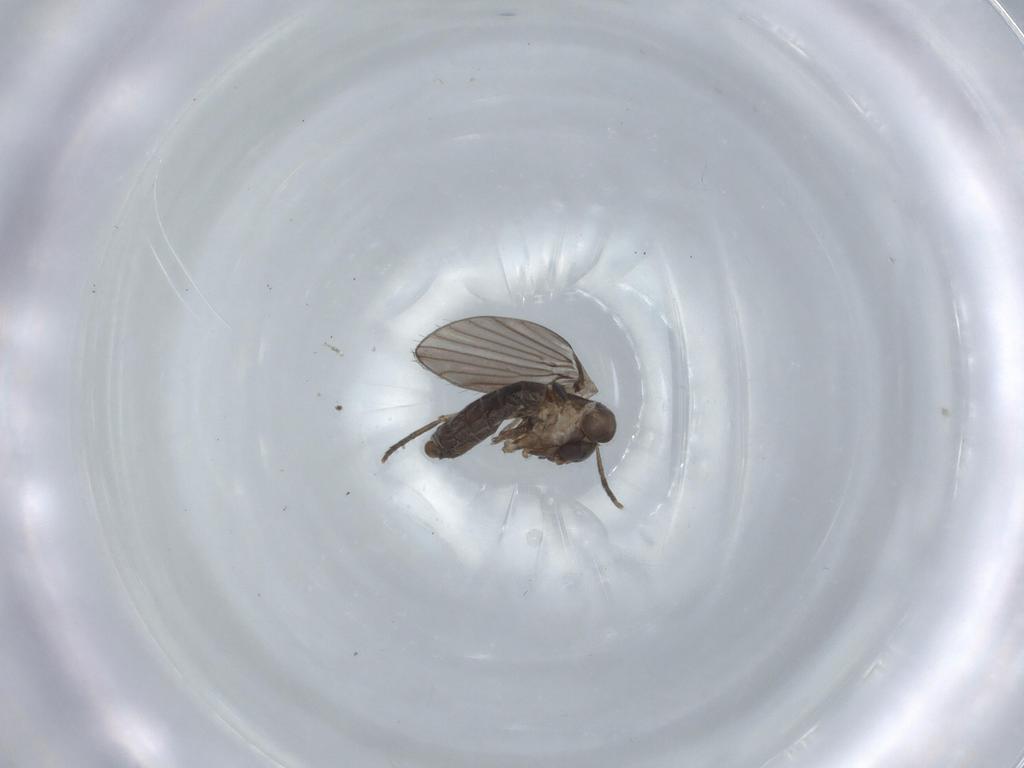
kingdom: Animalia
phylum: Arthropoda
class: Insecta
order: Diptera
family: Psychodidae
